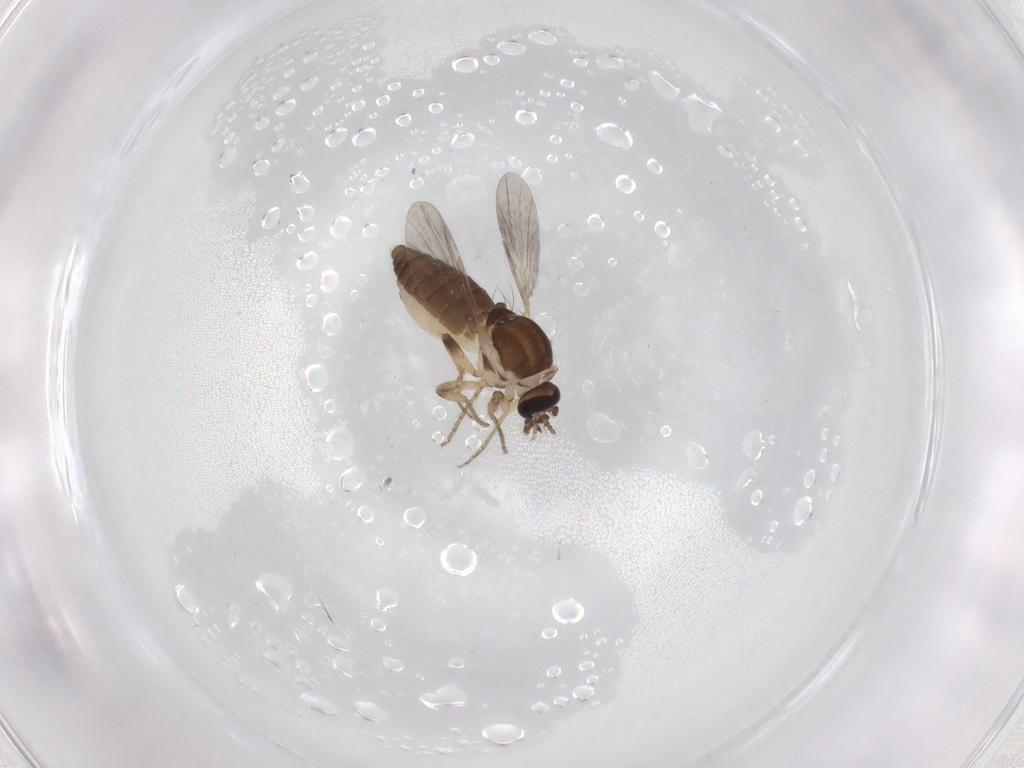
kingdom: Animalia
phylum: Arthropoda
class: Insecta
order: Diptera
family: Ceratopogonidae
